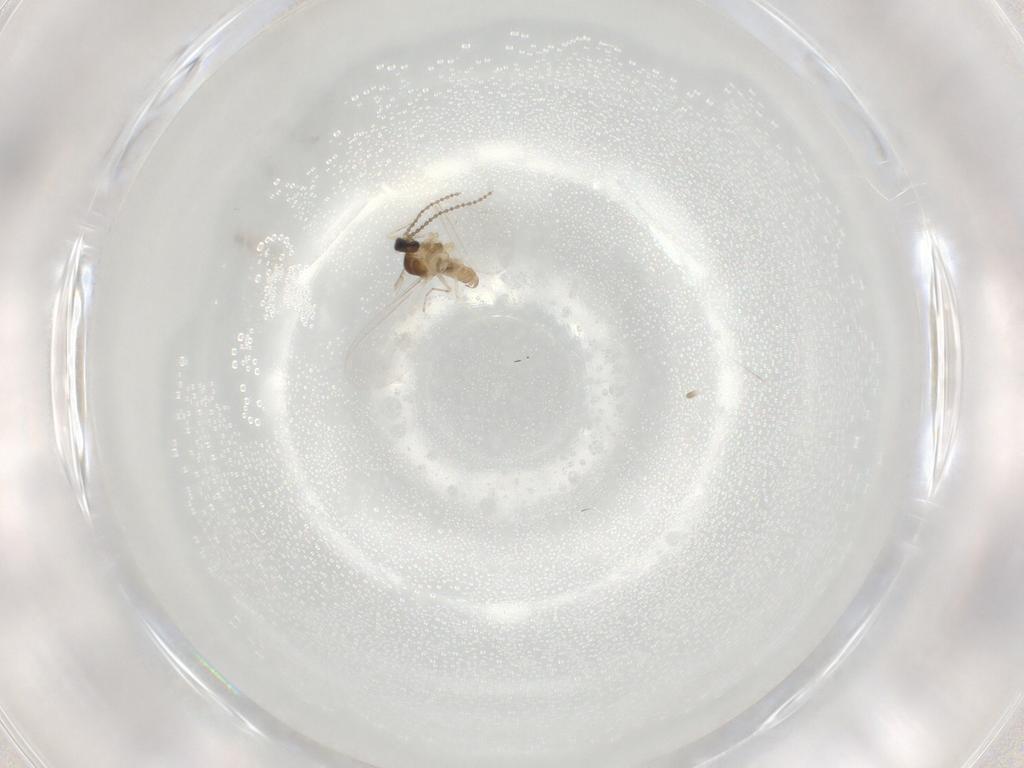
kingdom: Animalia
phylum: Arthropoda
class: Insecta
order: Diptera
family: Cecidomyiidae
